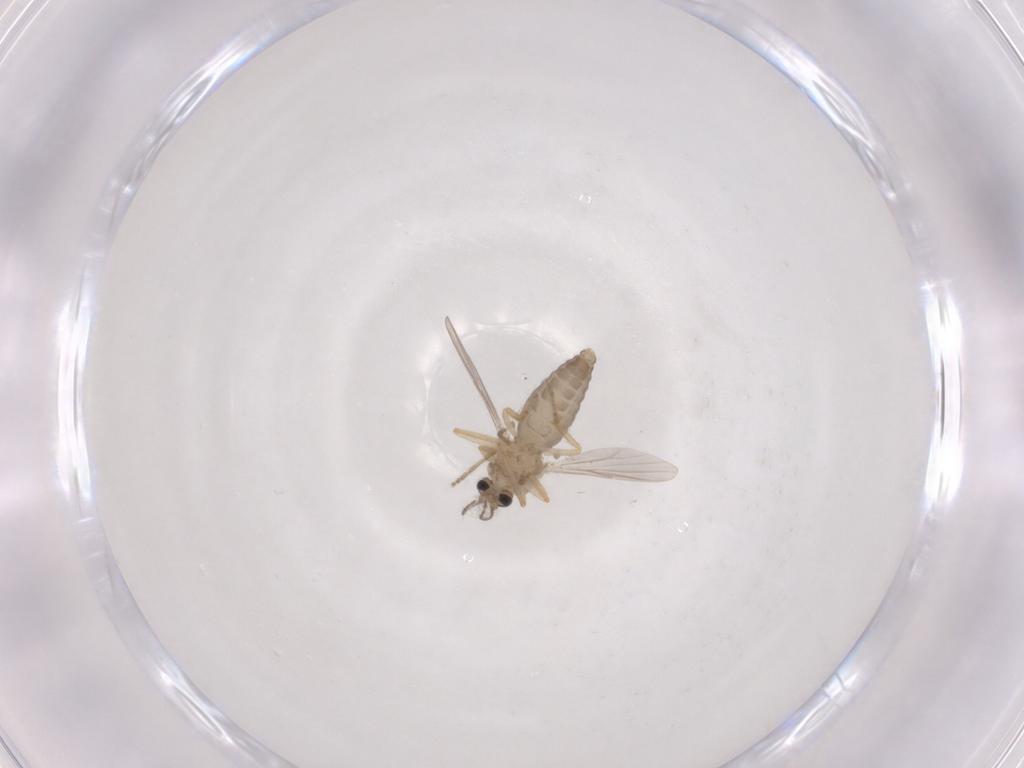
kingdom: Animalia
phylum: Arthropoda
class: Insecta
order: Diptera
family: Ceratopogonidae
